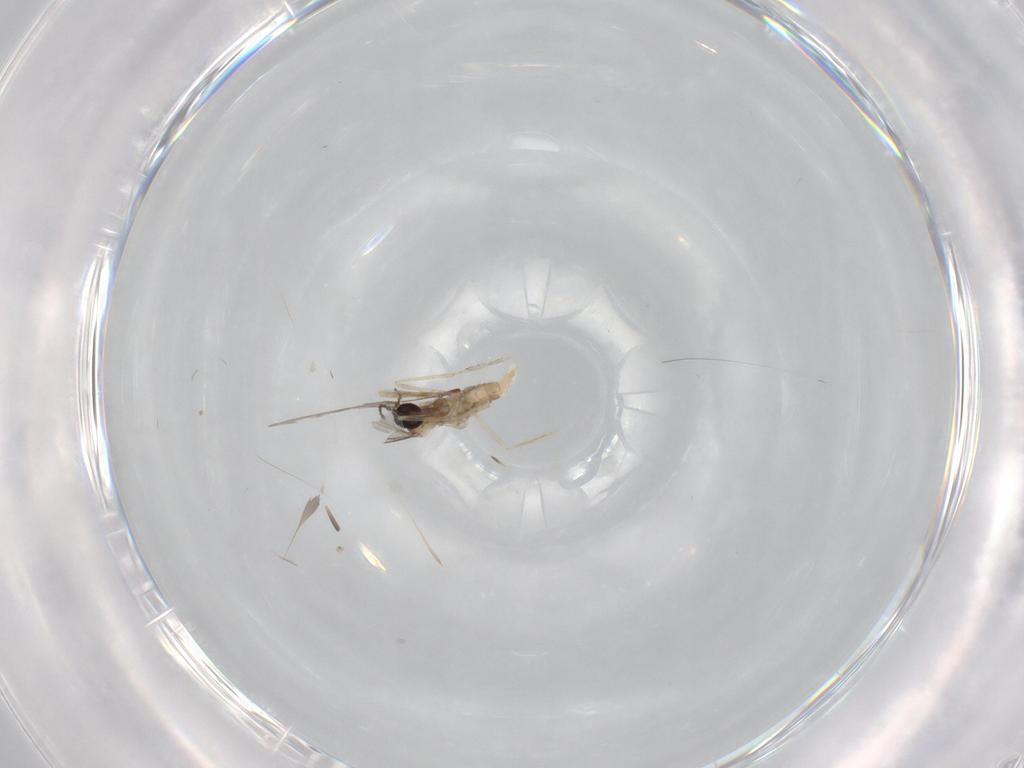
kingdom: Animalia
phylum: Arthropoda
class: Insecta
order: Diptera
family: Cecidomyiidae
